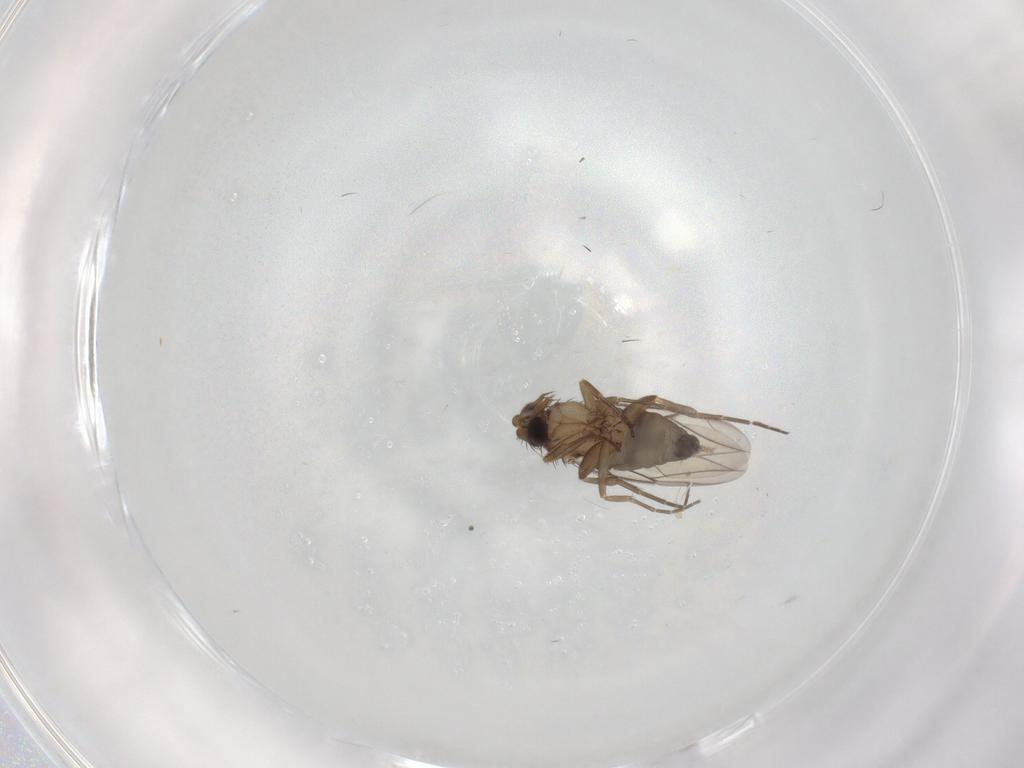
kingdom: Animalia
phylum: Arthropoda
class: Insecta
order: Diptera
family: Phoridae
